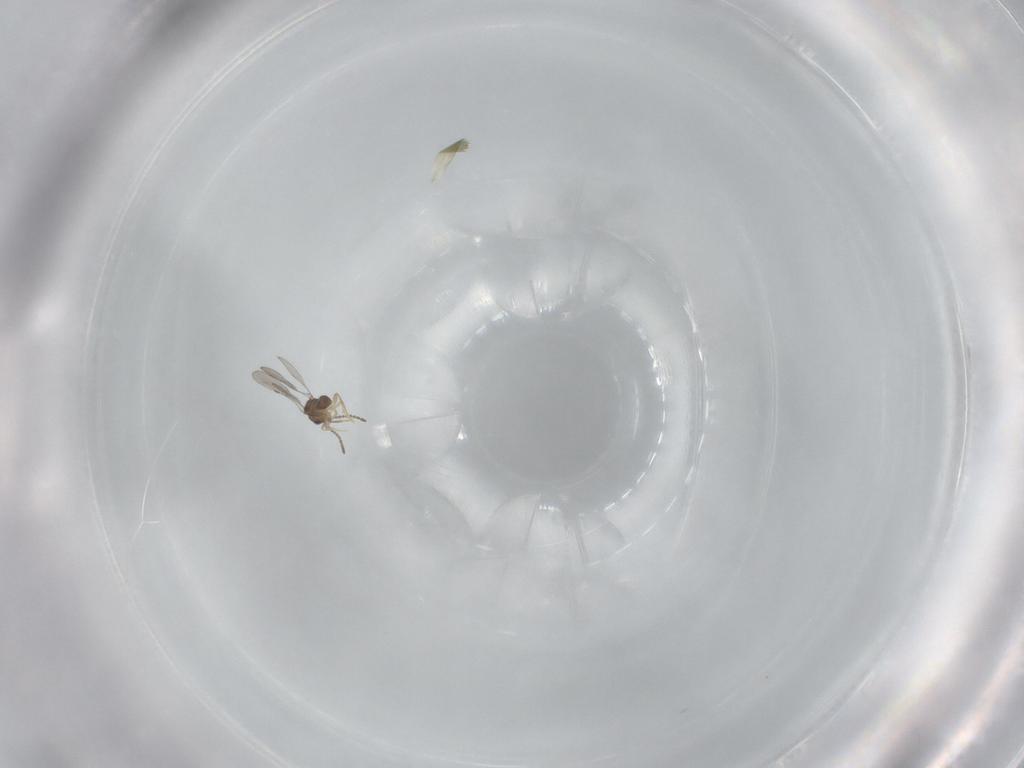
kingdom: Animalia
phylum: Arthropoda
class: Insecta
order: Hymenoptera
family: Ceraphronidae
